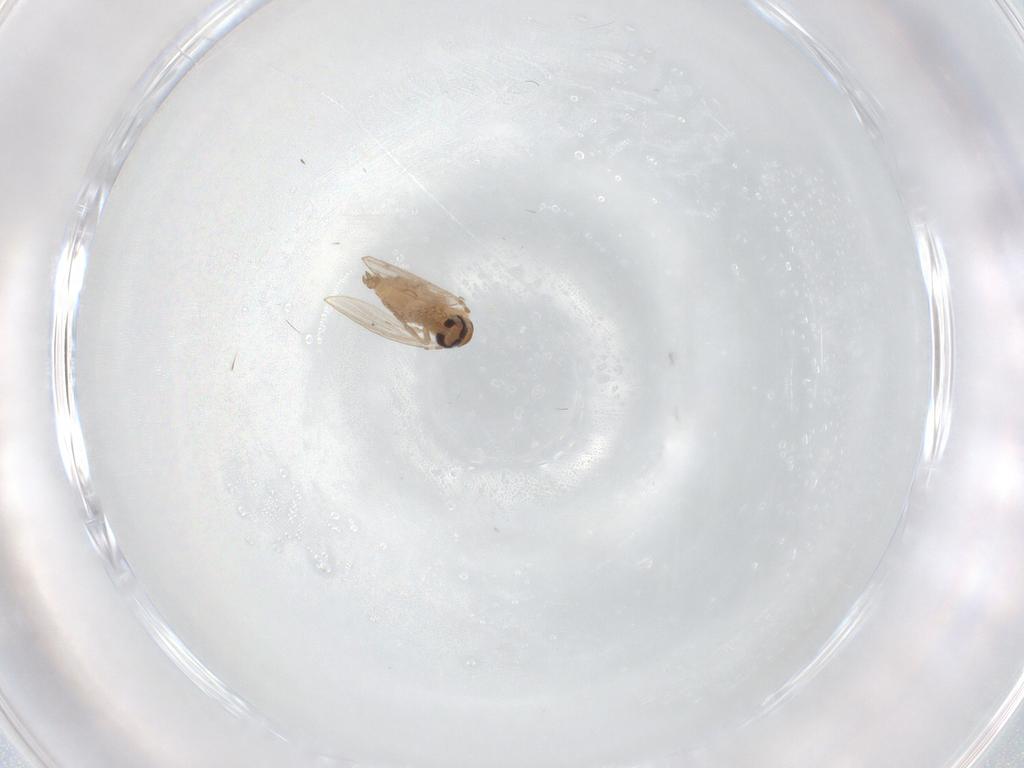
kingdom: Animalia
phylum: Arthropoda
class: Insecta
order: Diptera
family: Psychodidae
